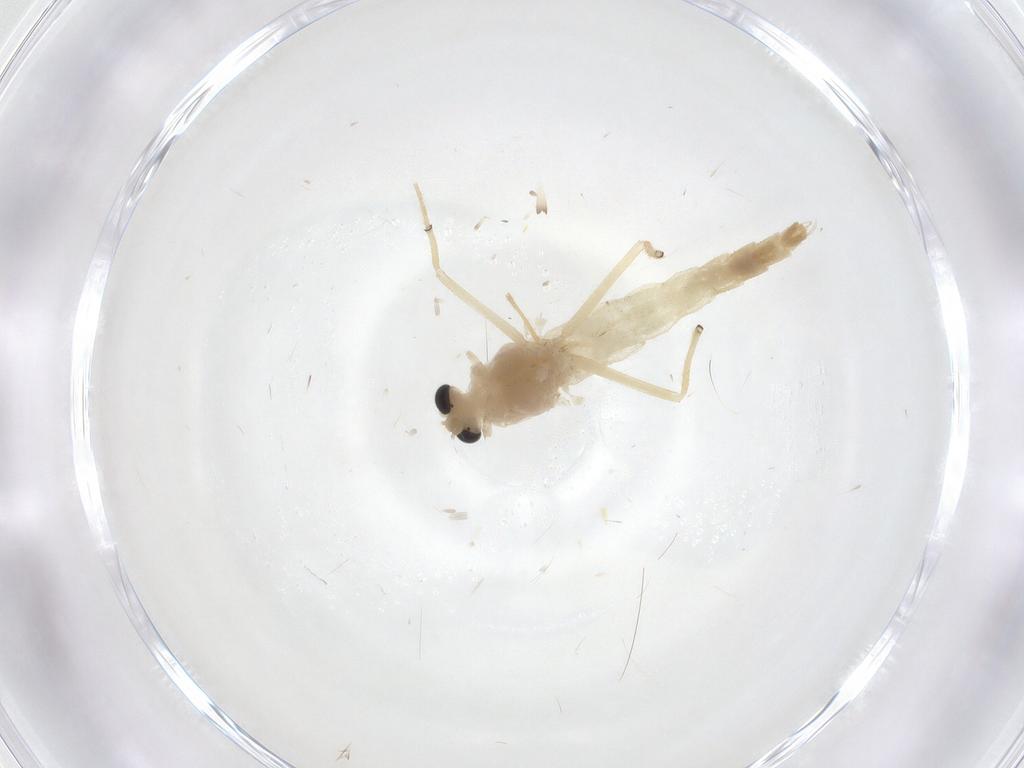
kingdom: Animalia
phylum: Arthropoda
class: Insecta
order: Diptera
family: Chironomidae
